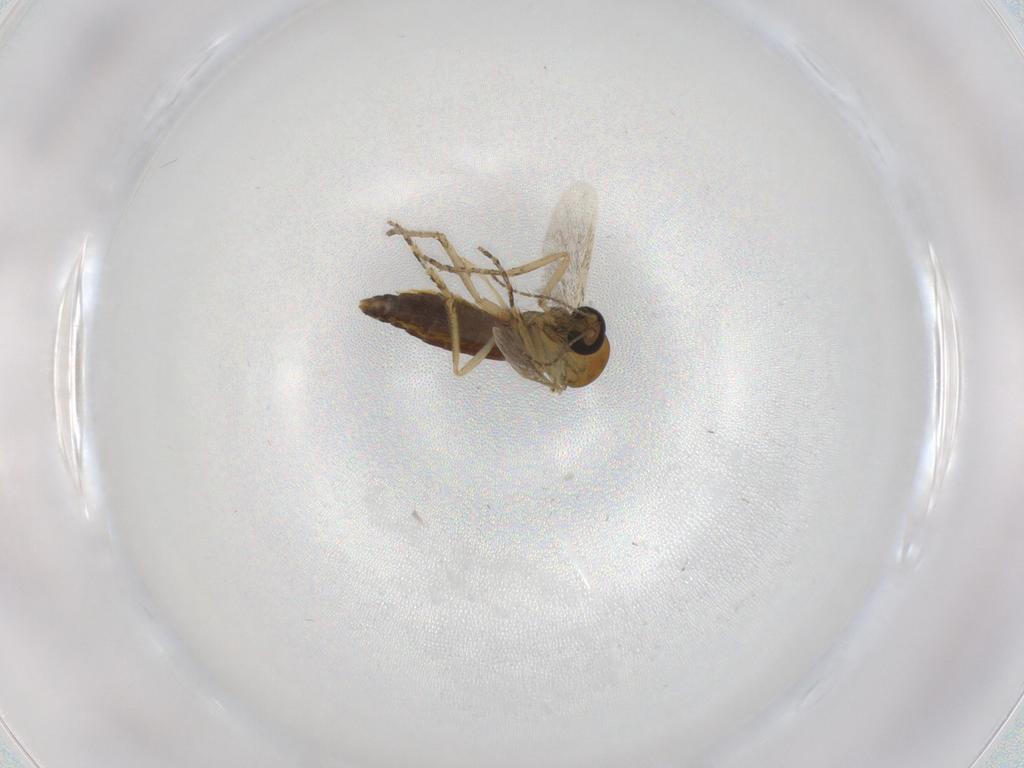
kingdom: Animalia
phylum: Arthropoda
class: Insecta
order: Diptera
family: Ceratopogonidae
